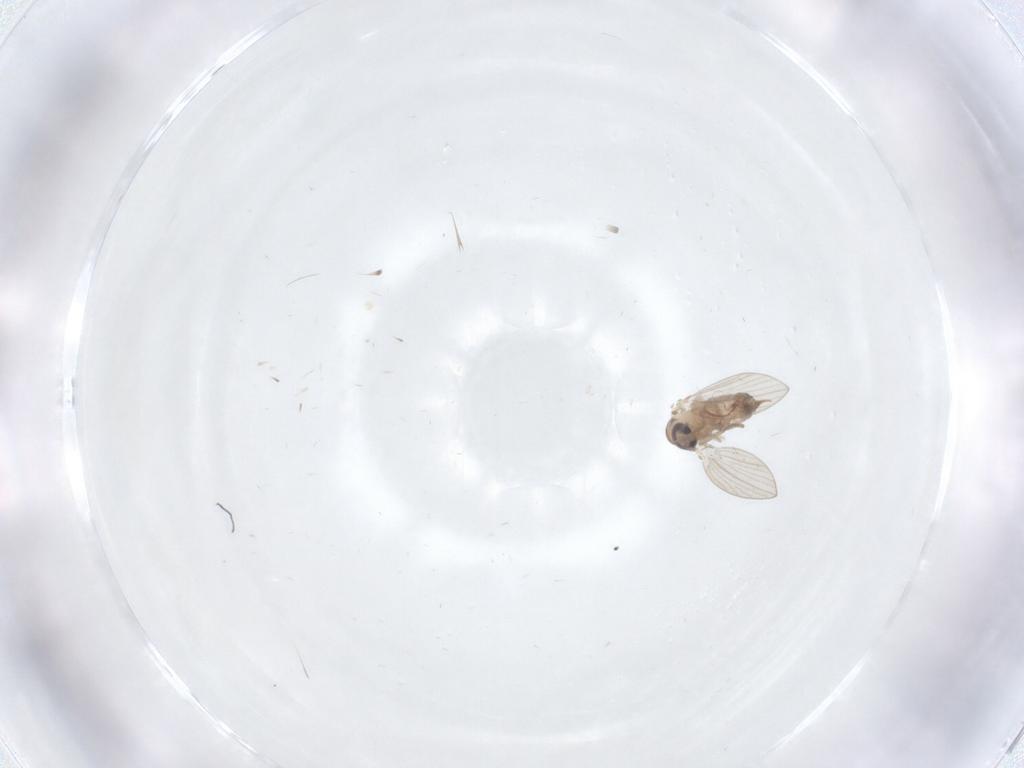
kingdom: Animalia
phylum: Arthropoda
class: Insecta
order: Diptera
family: Psychodidae
